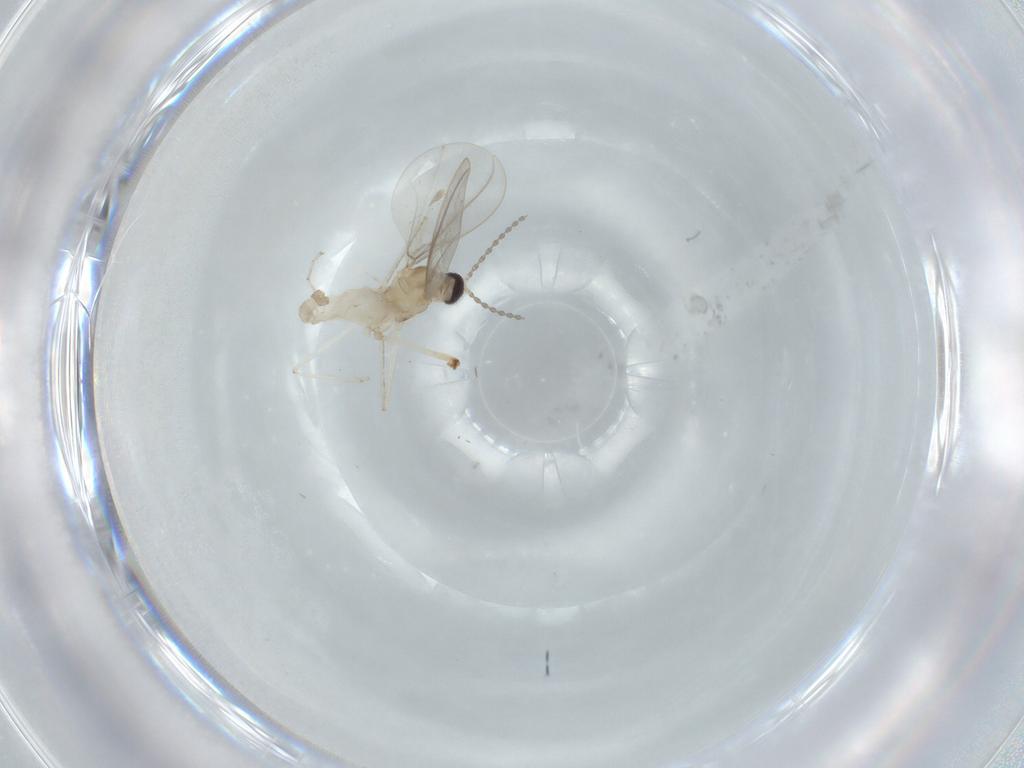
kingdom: Animalia
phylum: Arthropoda
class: Insecta
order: Diptera
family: Cecidomyiidae
